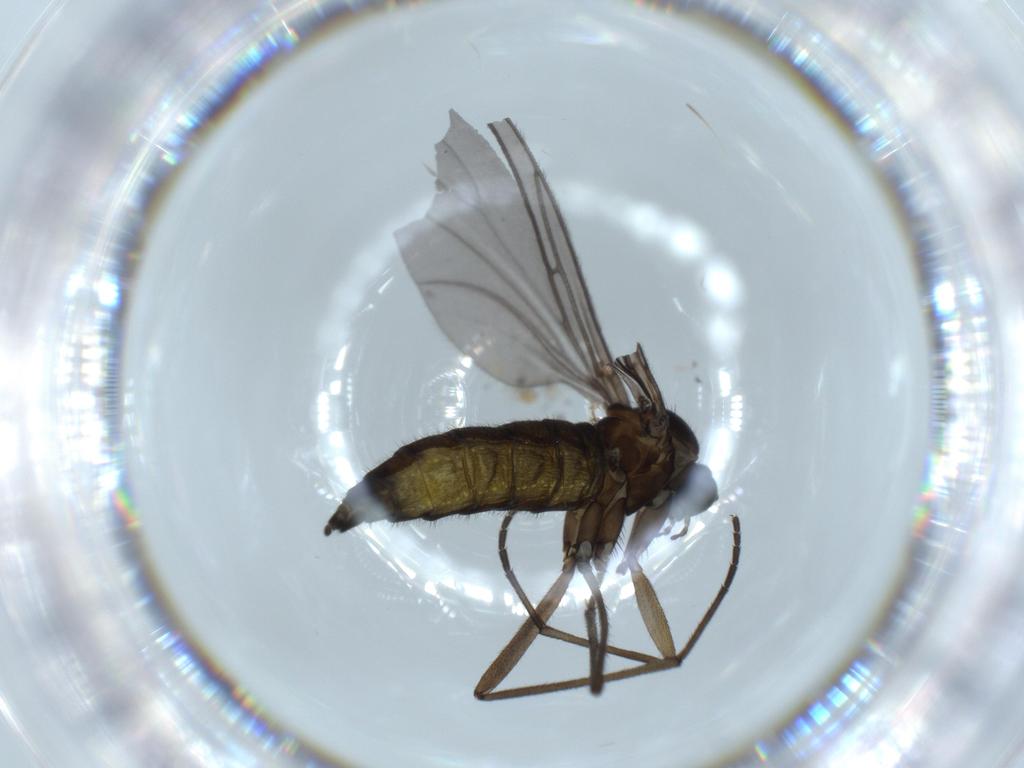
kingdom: Animalia
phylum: Arthropoda
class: Insecta
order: Diptera
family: Sciaridae
